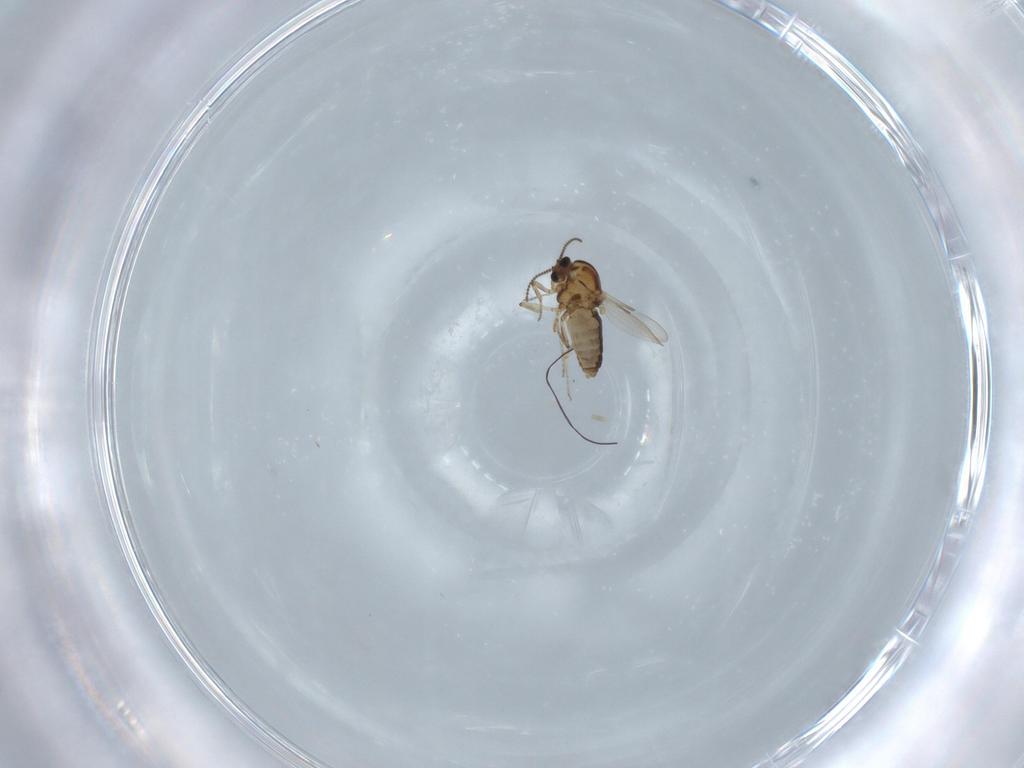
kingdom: Animalia
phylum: Arthropoda
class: Insecta
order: Diptera
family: Ceratopogonidae
